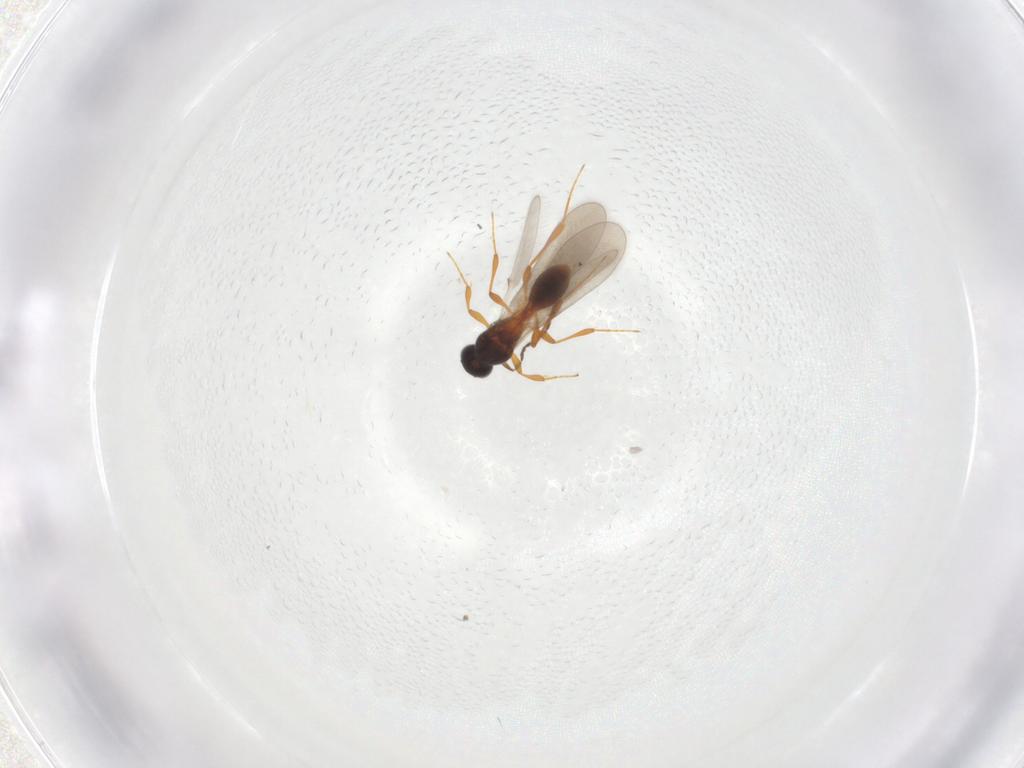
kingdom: Animalia
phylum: Arthropoda
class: Insecta
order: Hymenoptera
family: Platygastridae
